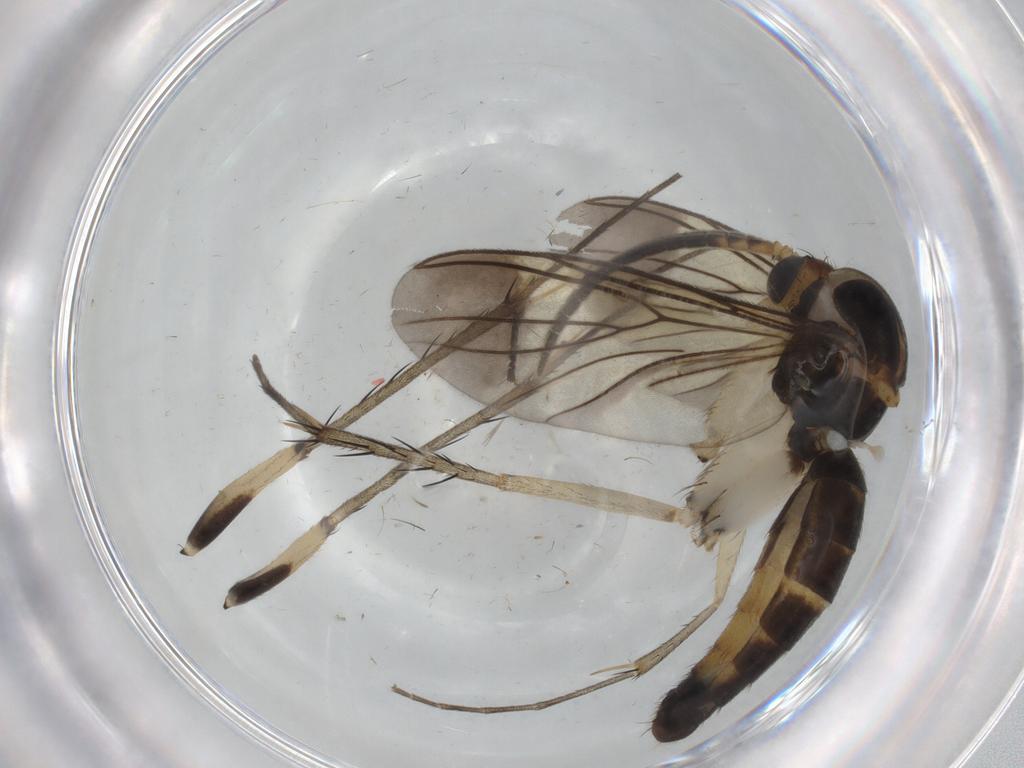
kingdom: Animalia
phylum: Arthropoda
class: Insecta
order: Diptera
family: Mycetophilidae
